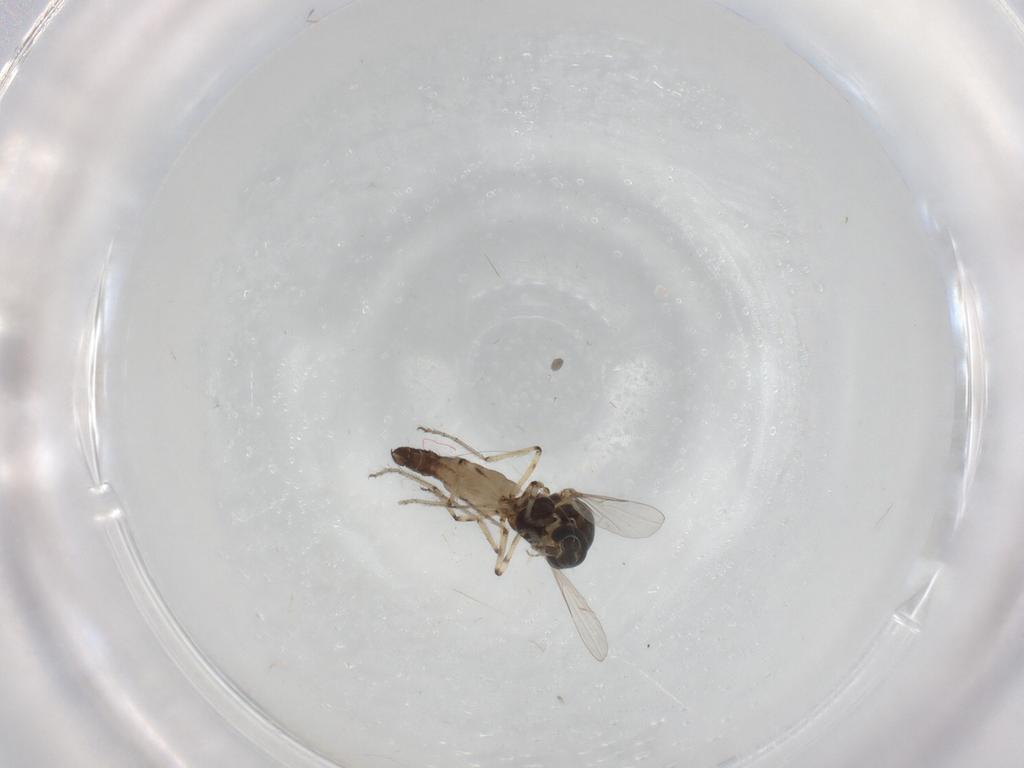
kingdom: Animalia
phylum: Arthropoda
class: Insecta
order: Diptera
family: Ceratopogonidae
